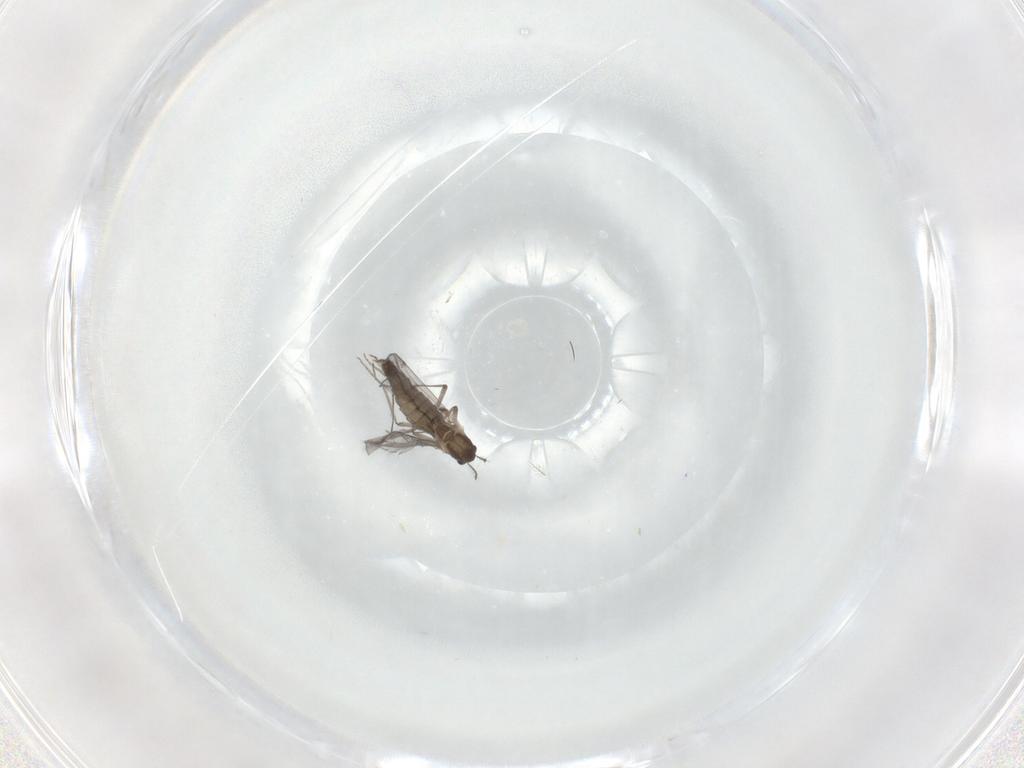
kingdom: Animalia
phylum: Arthropoda
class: Insecta
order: Diptera
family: Chironomidae
